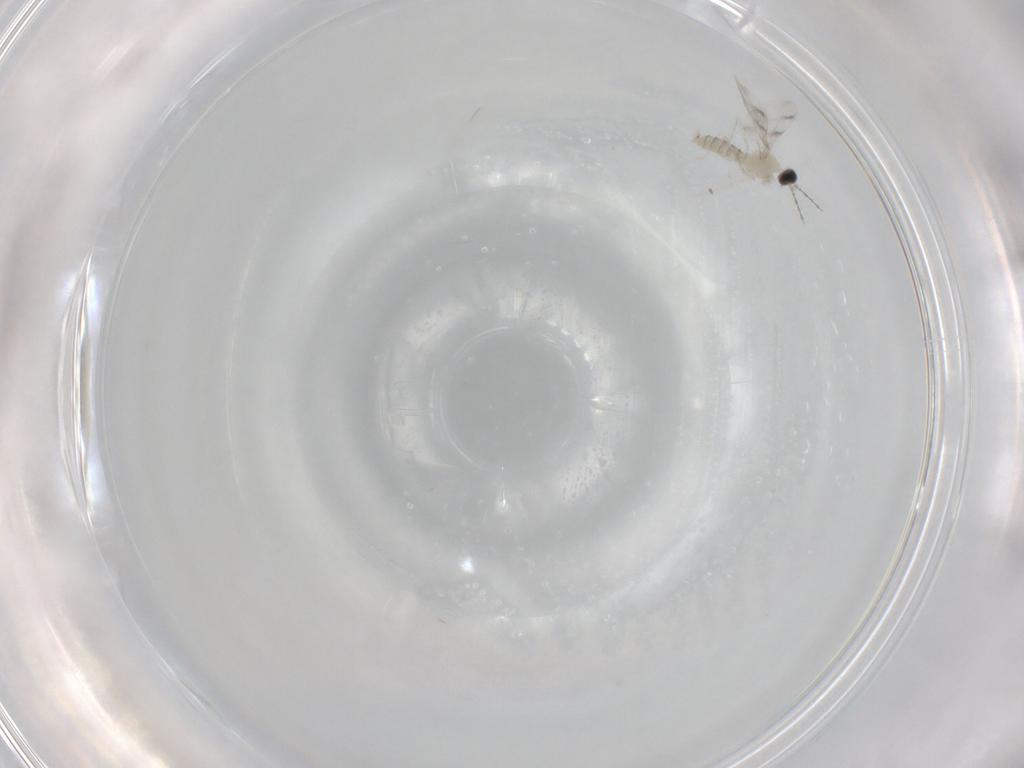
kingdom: Animalia
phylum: Arthropoda
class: Insecta
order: Diptera
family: Cecidomyiidae
